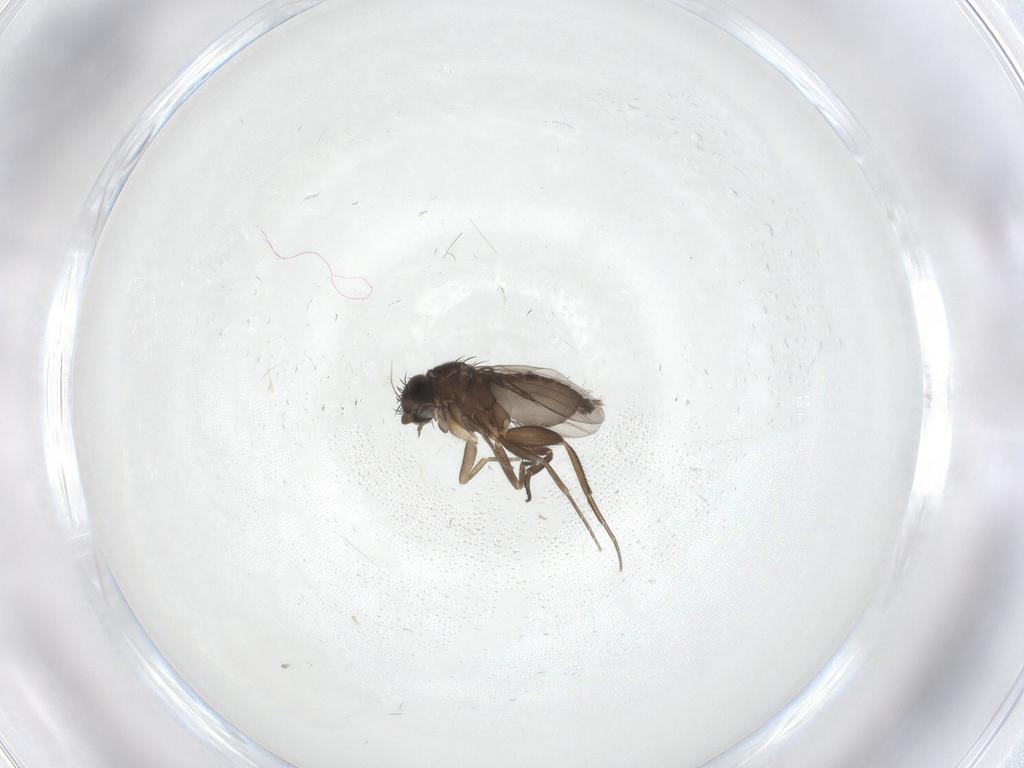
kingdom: Animalia
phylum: Arthropoda
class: Insecta
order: Diptera
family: Phoridae
